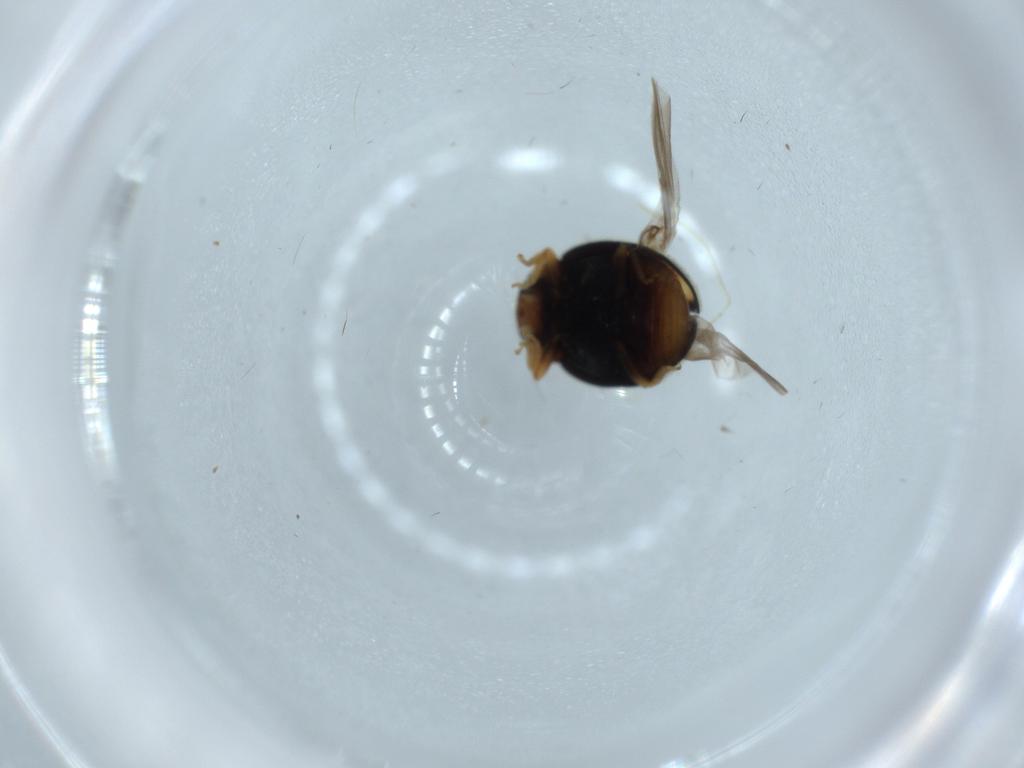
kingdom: Animalia
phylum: Arthropoda
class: Insecta
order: Coleoptera
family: Coccinellidae
